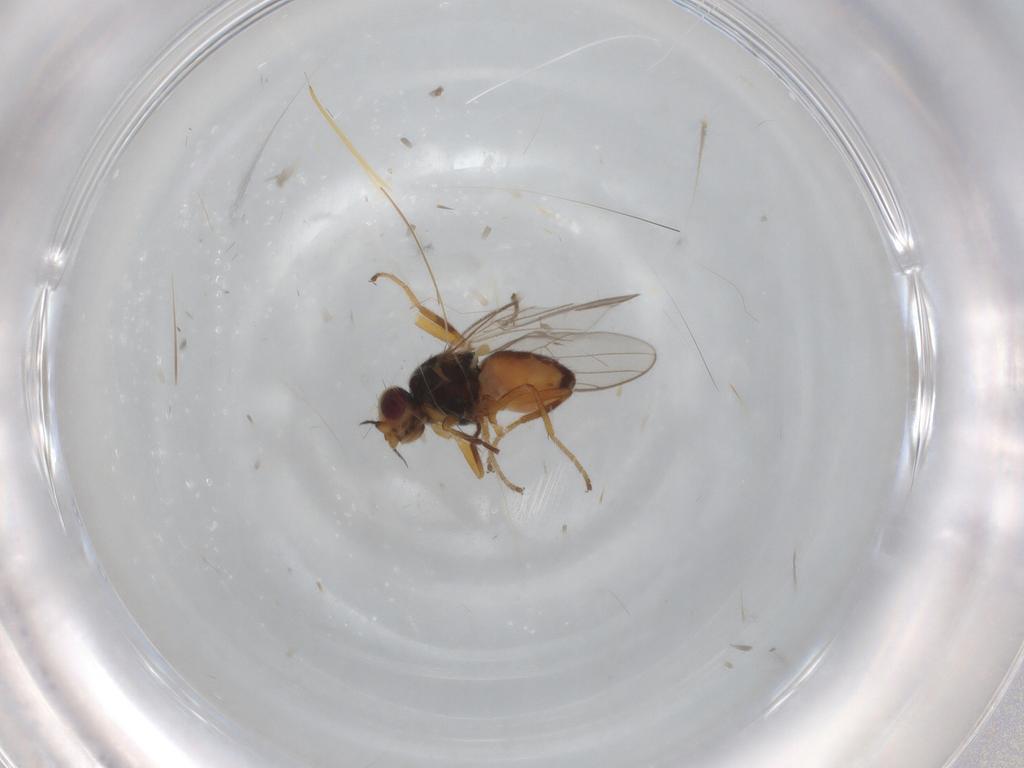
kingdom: Animalia
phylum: Arthropoda
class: Insecta
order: Diptera
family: Chloropidae
